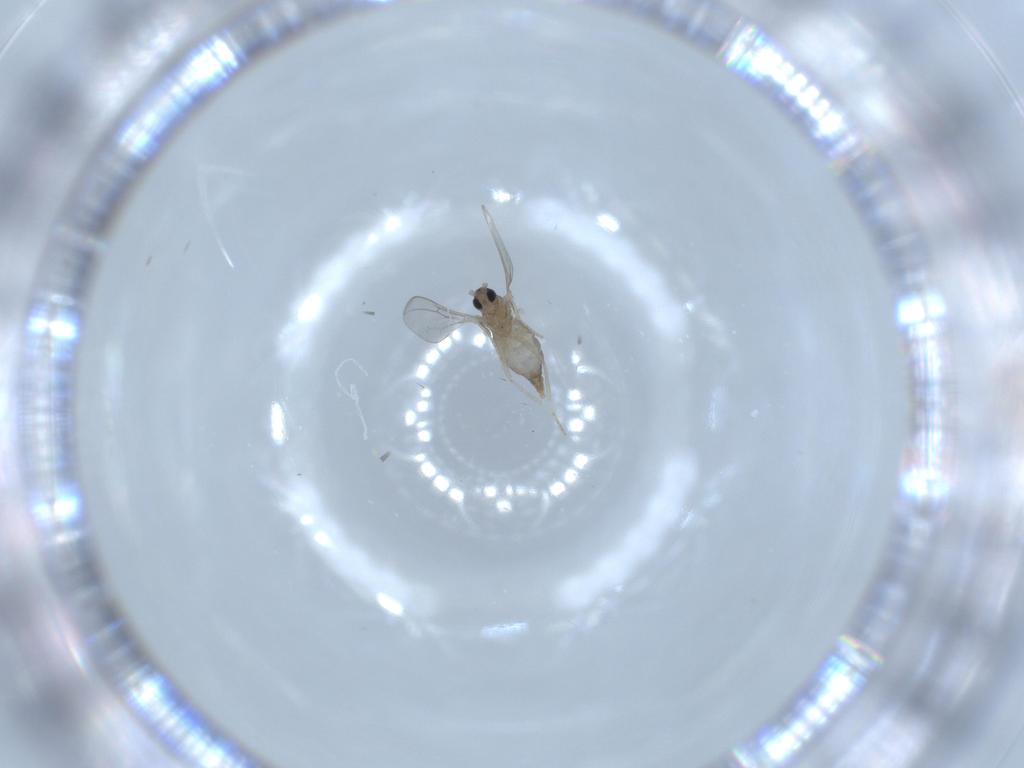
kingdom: Animalia
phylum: Arthropoda
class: Insecta
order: Diptera
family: Cecidomyiidae
